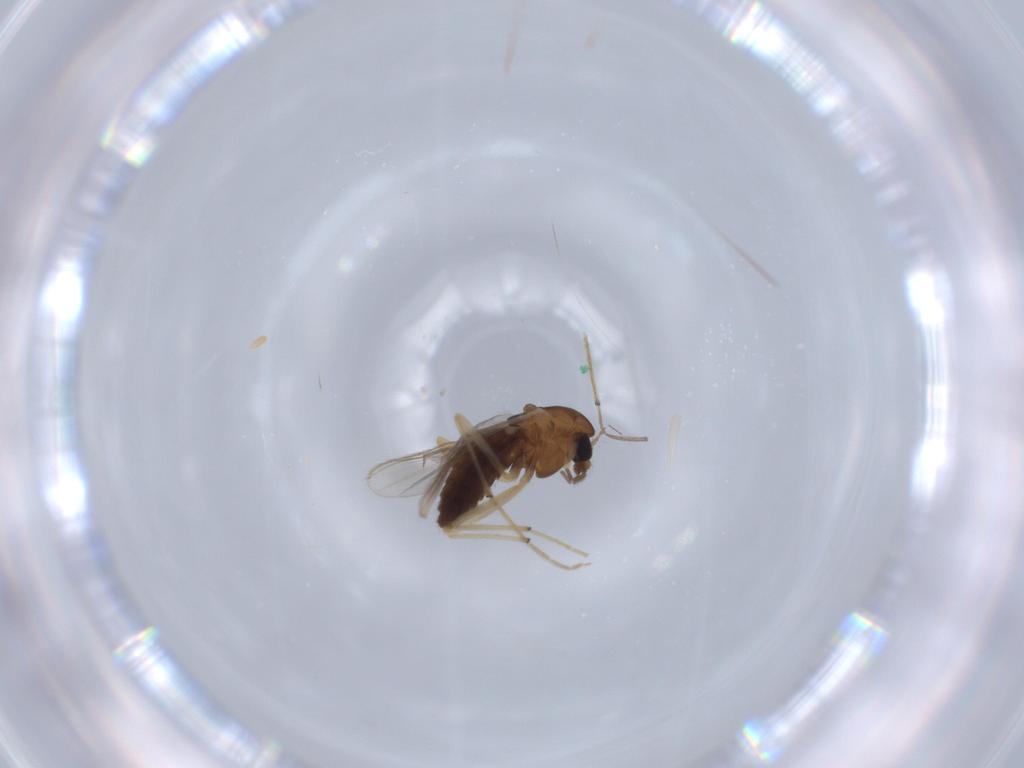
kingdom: Animalia
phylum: Arthropoda
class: Insecta
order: Diptera
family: Chironomidae
